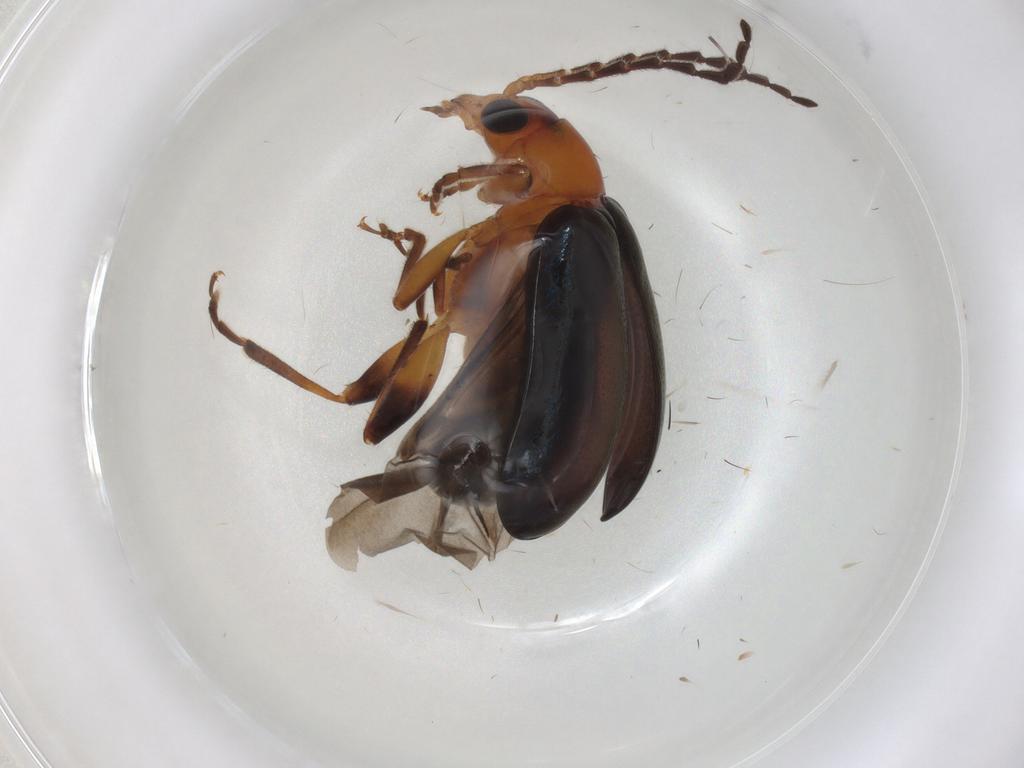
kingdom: Animalia
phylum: Arthropoda
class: Insecta
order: Coleoptera
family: Chrysomelidae
